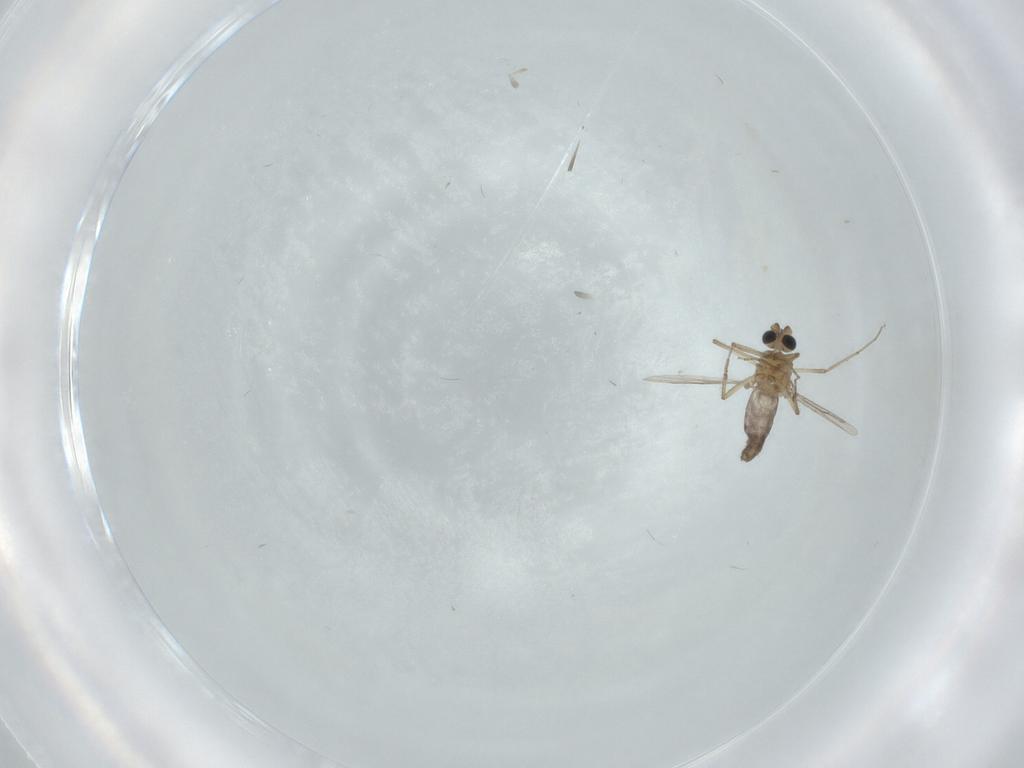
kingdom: Animalia
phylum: Arthropoda
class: Insecta
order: Diptera
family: Ceratopogonidae
